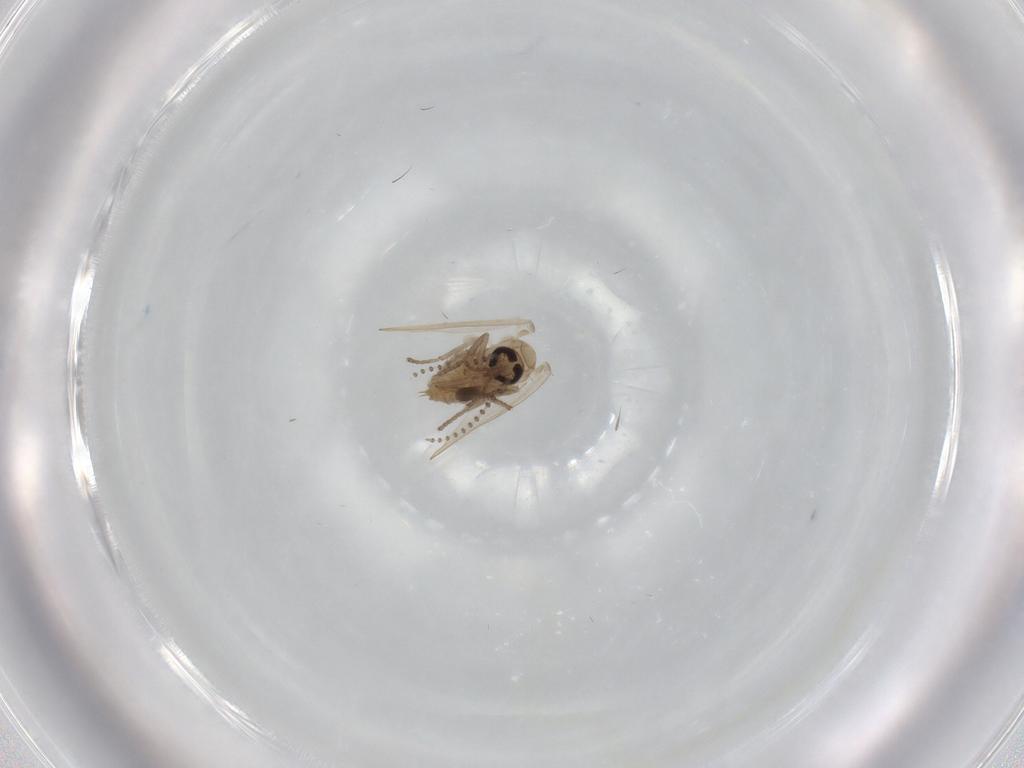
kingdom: Animalia
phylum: Arthropoda
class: Insecta
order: Diptera
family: Psychodidae
